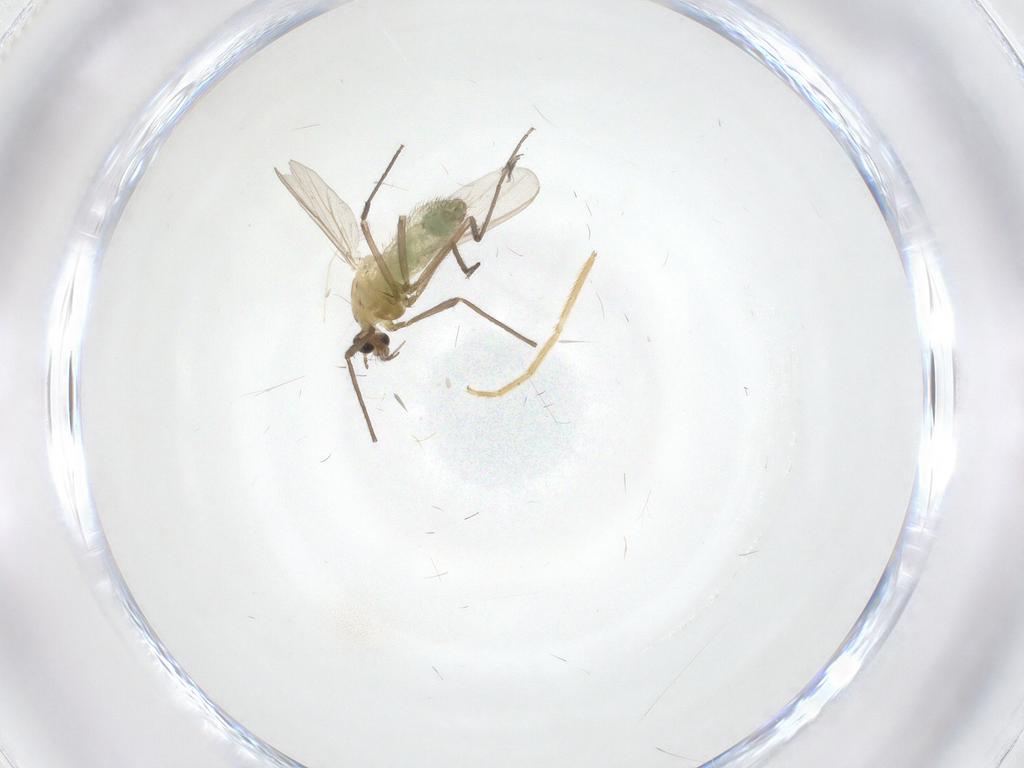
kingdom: Animalia
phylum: Arthropoda
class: Insecta
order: Diptera
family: Chironomidae
